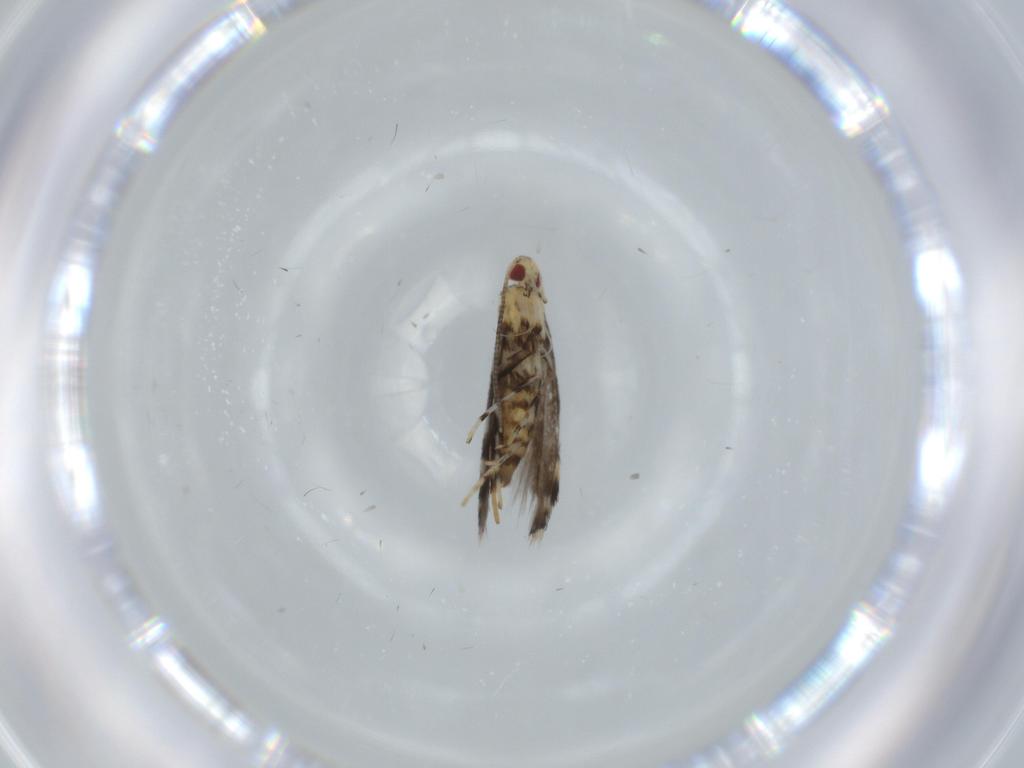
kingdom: Animalia
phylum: Arthropoda
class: Insecta
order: Lepidoptera
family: Gracillariidae
